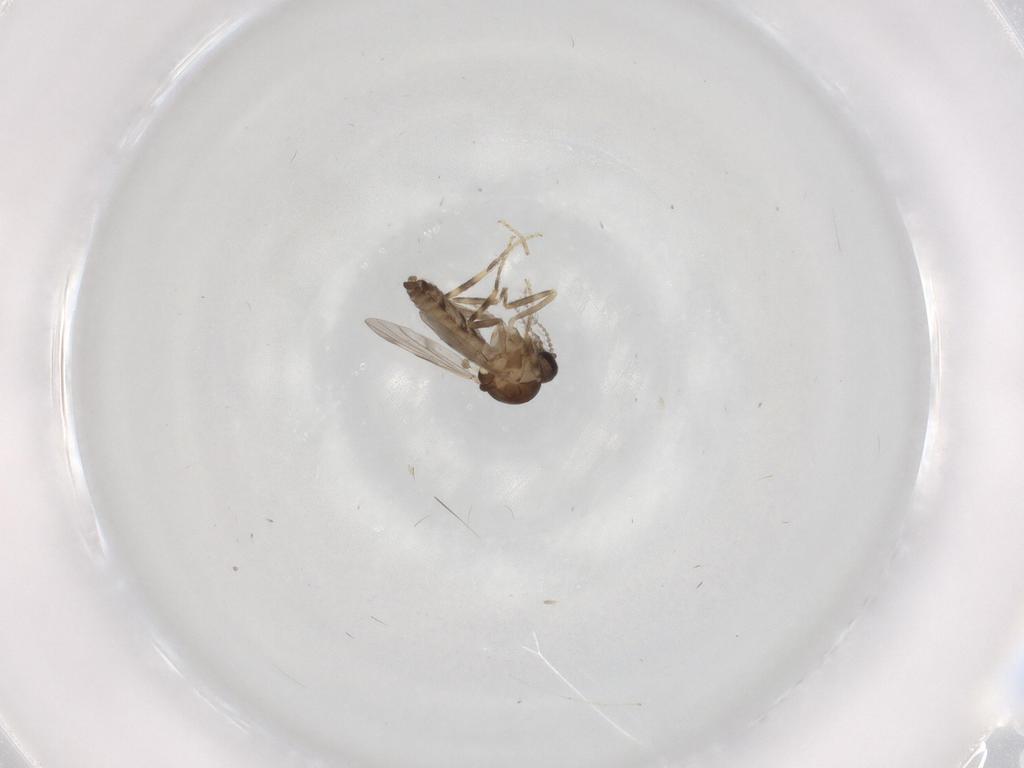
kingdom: Animalia
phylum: Arthropoda
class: Insecta
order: Diptera
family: Ceratopogonidae
